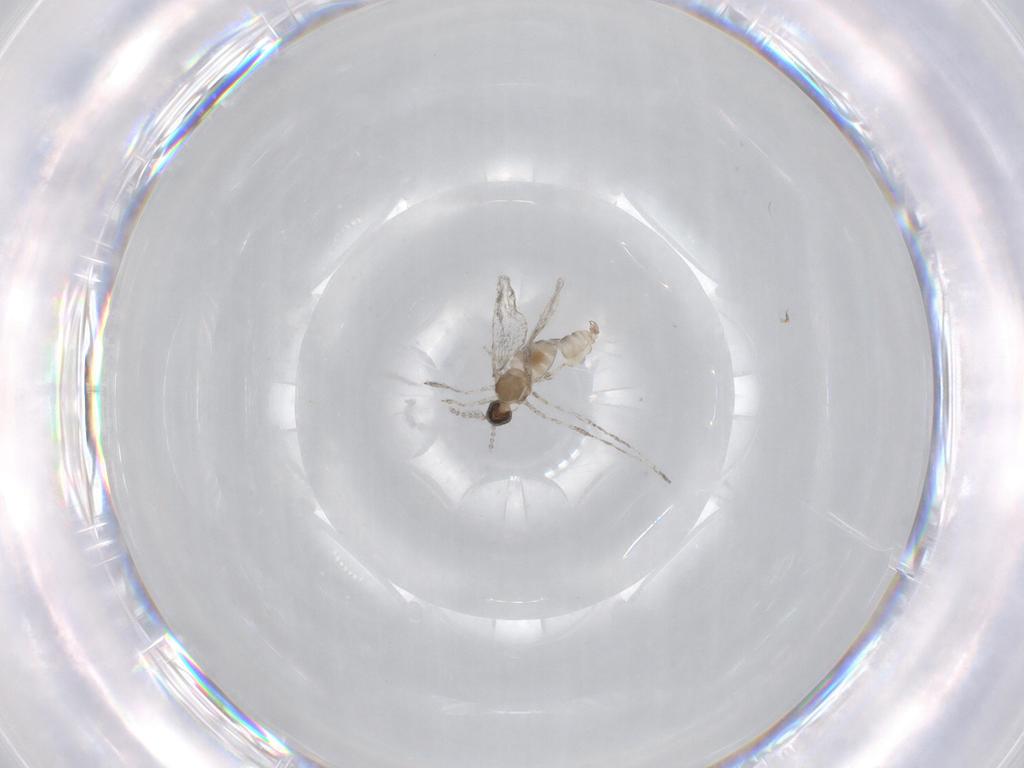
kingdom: Animalia
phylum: Arthropoda
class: Insecta
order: Diptera
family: Cecidomyiidae
